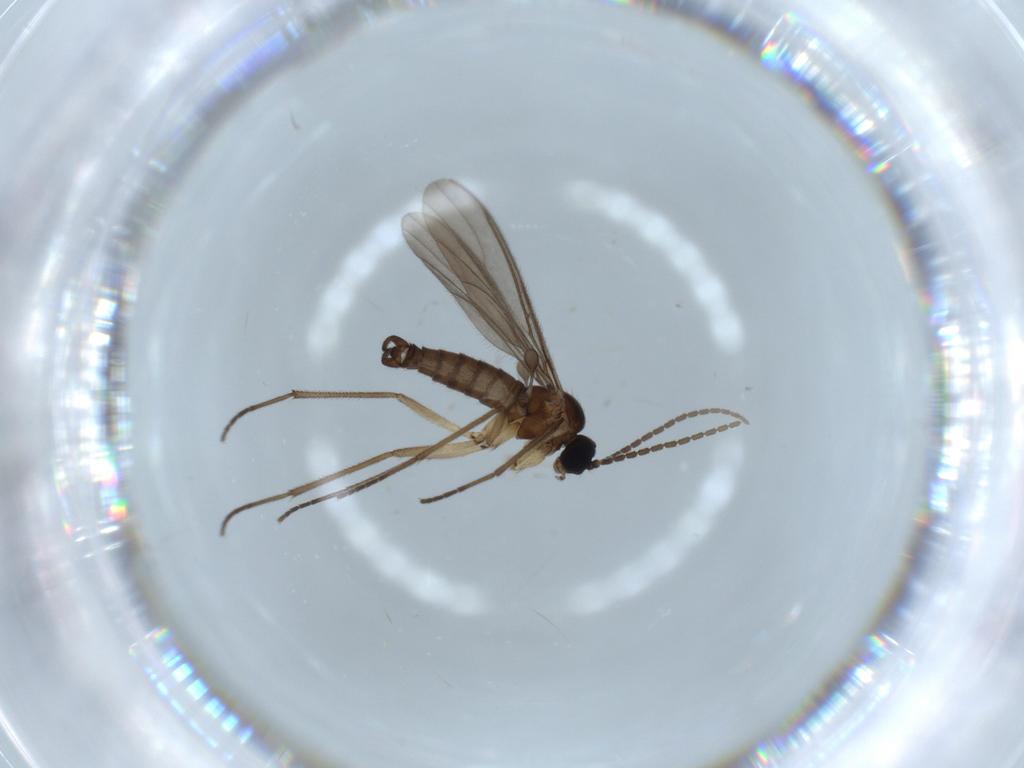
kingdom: Animalia
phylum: Arthropoda
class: Insecta
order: Diptera
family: Sciaridae
